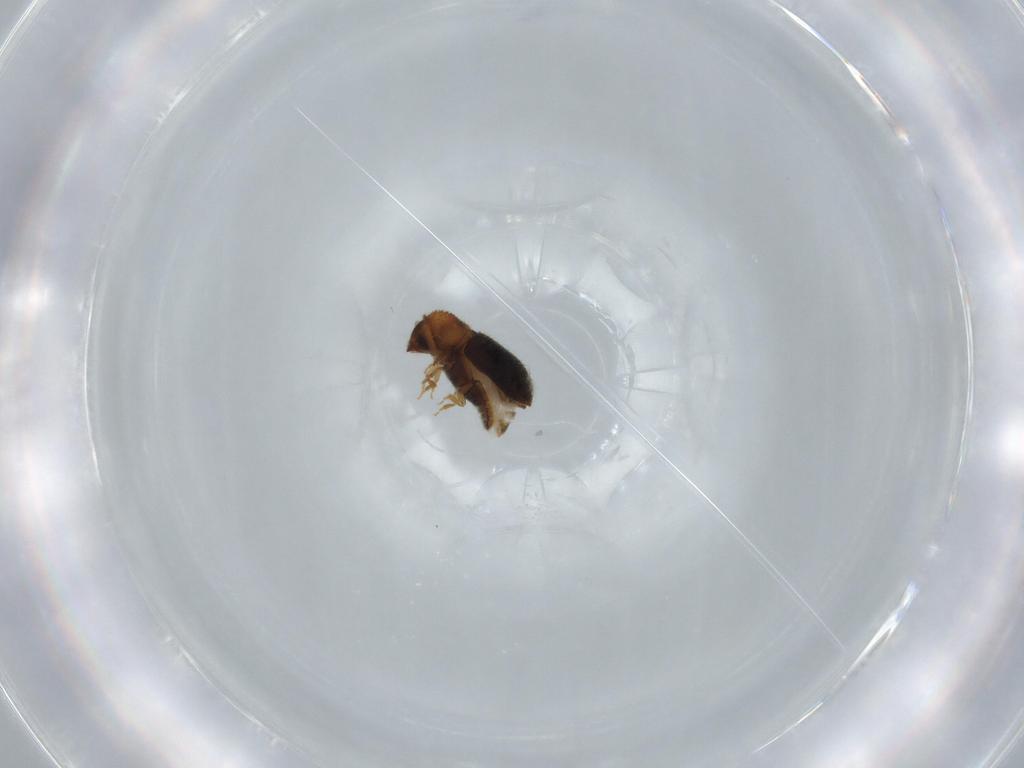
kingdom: Animalia
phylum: Arthropoda
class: Insecta
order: Coleoptera
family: Curculionidae
